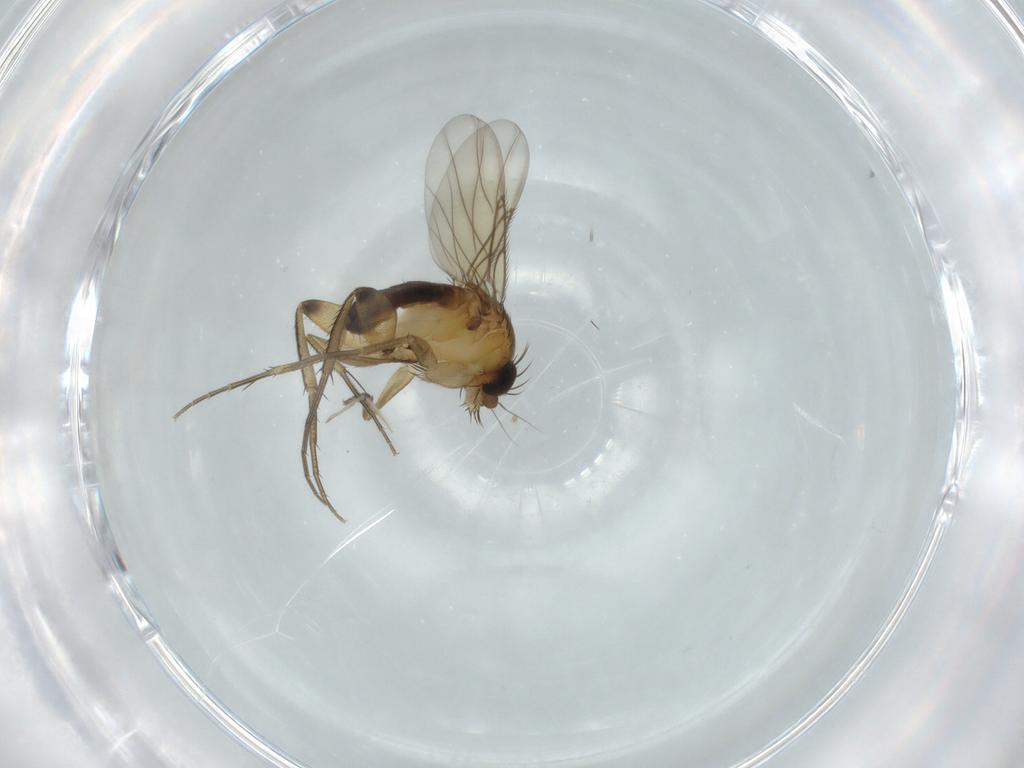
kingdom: Animalia
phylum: Arthropoda
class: Insecta
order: Diptera
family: Phoridae
